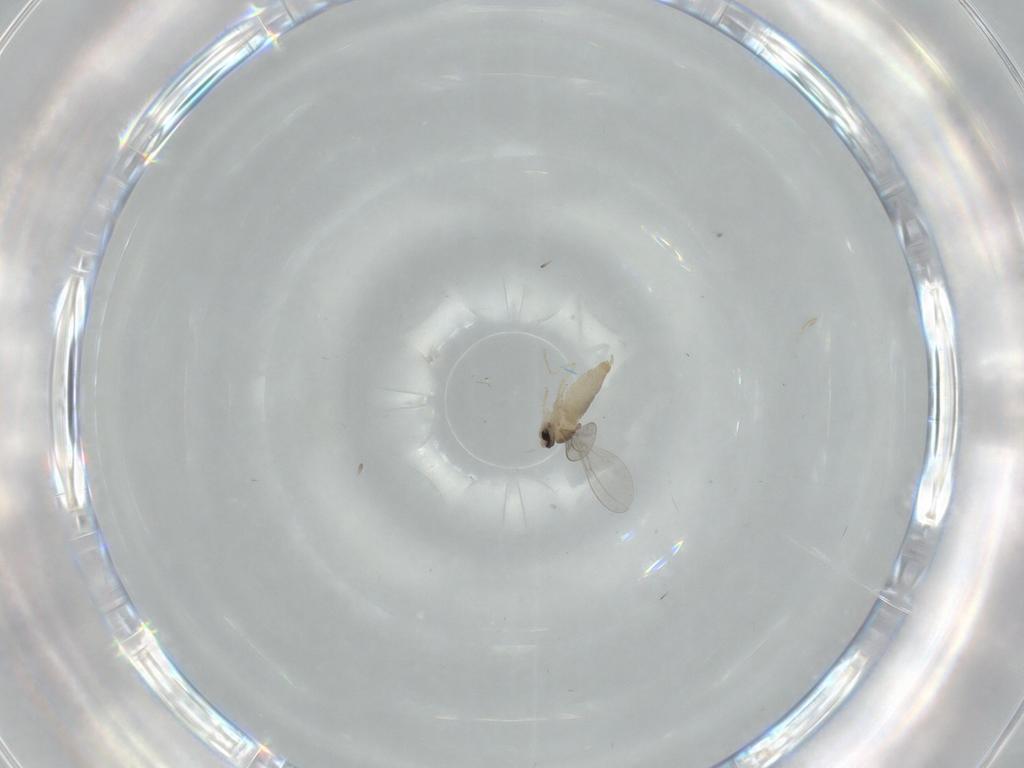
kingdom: Animalia
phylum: Arthropoda
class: Insecta
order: Diptera
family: Cecidomyiidae
